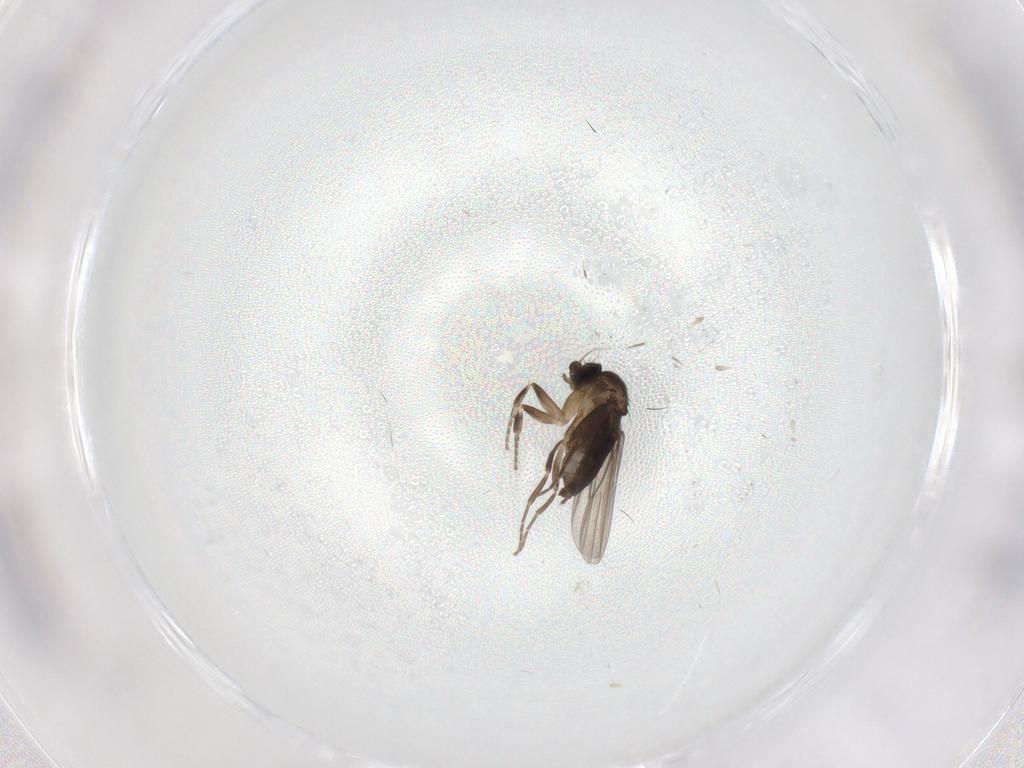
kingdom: Animalia
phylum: Arthropoda
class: Insecta
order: Diptera
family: Phoridae
